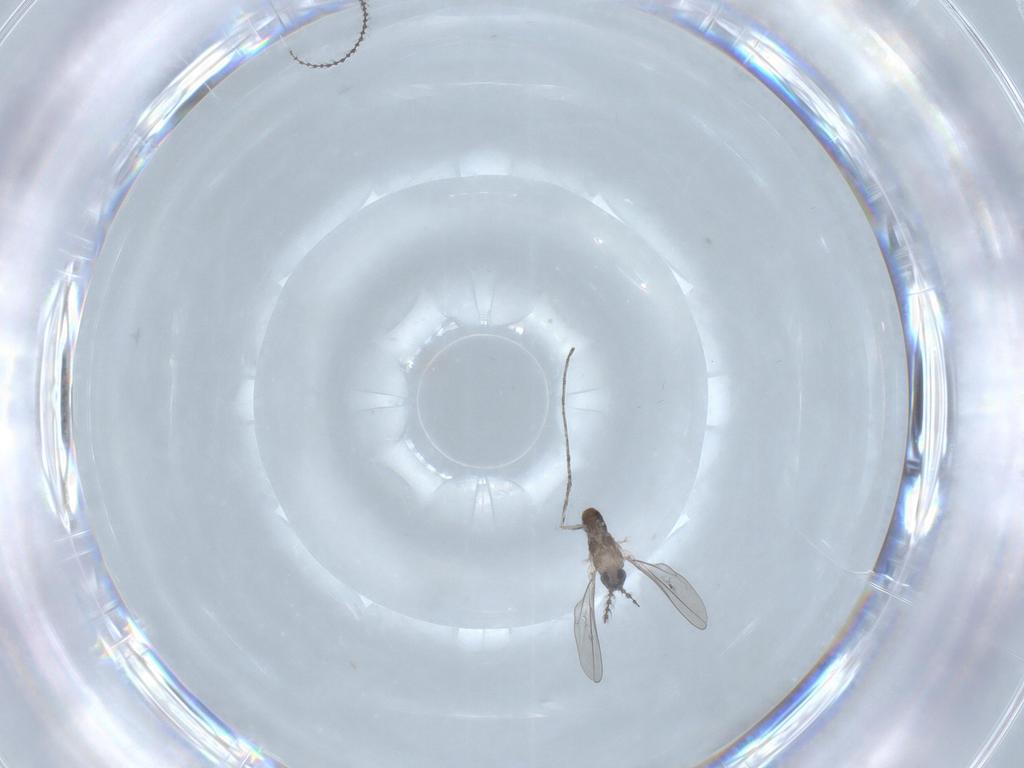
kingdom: Animalia
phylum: Arthropoda
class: Insecta
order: Diptera
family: Cecidomyiidae
